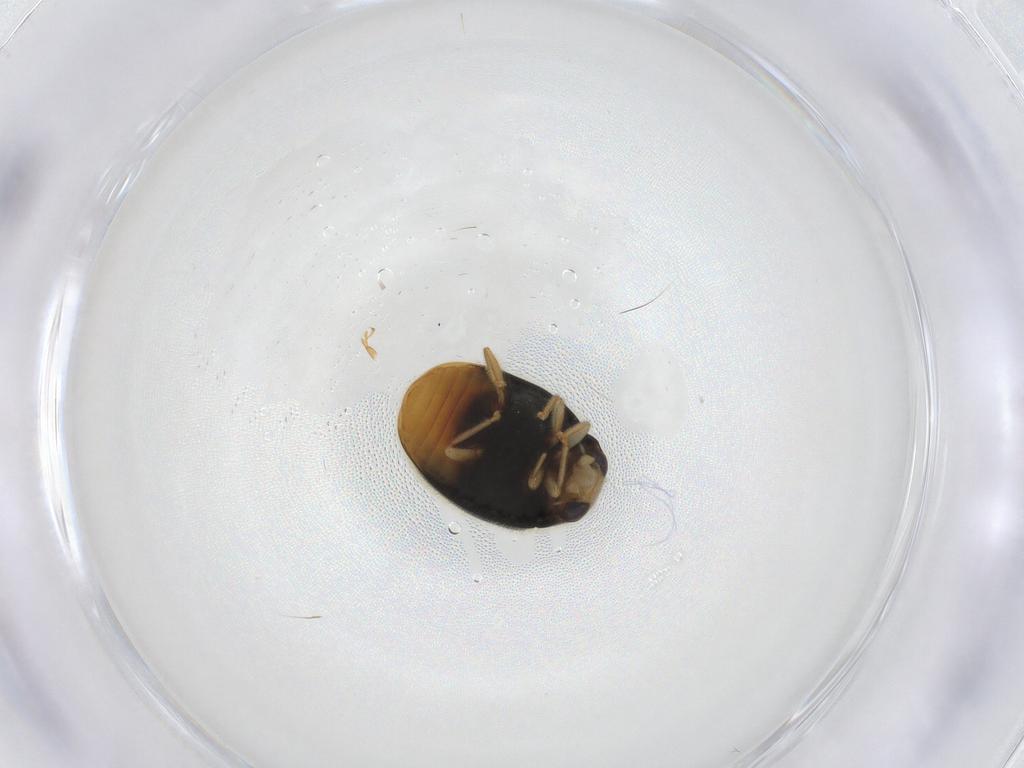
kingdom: Animalia
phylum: Arthropoda
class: Insecta
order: Coleoptera
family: Coccinellidae
